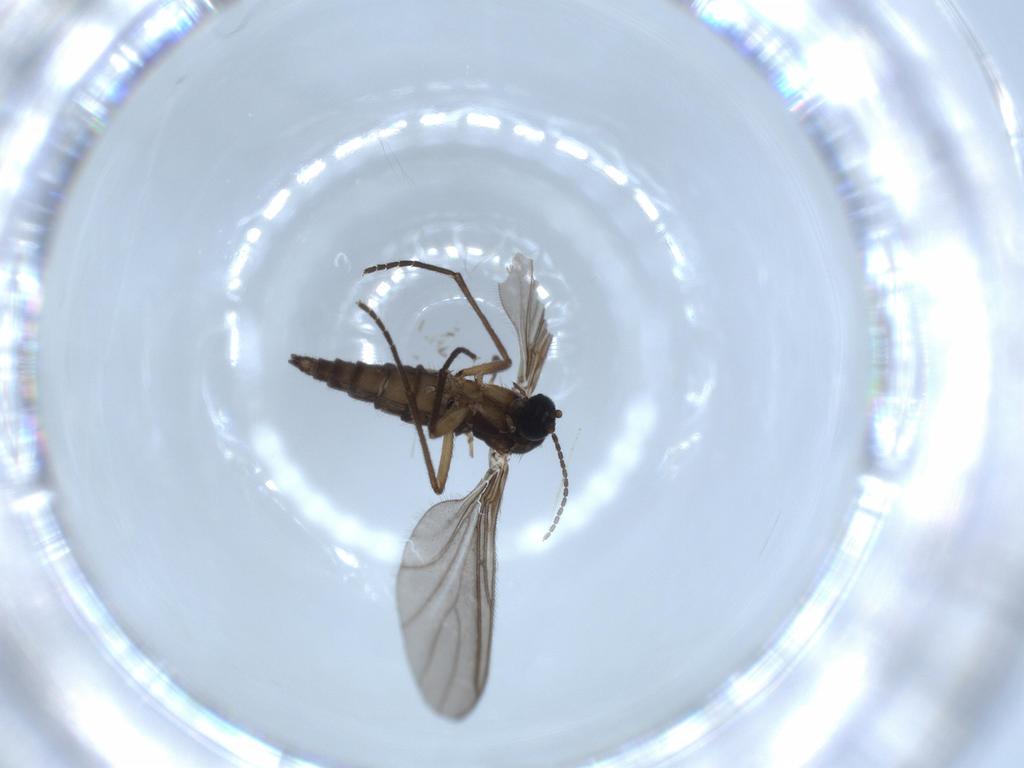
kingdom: Animalia
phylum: Arthropoda
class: Insecta
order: Diptera
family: Sciaridae
